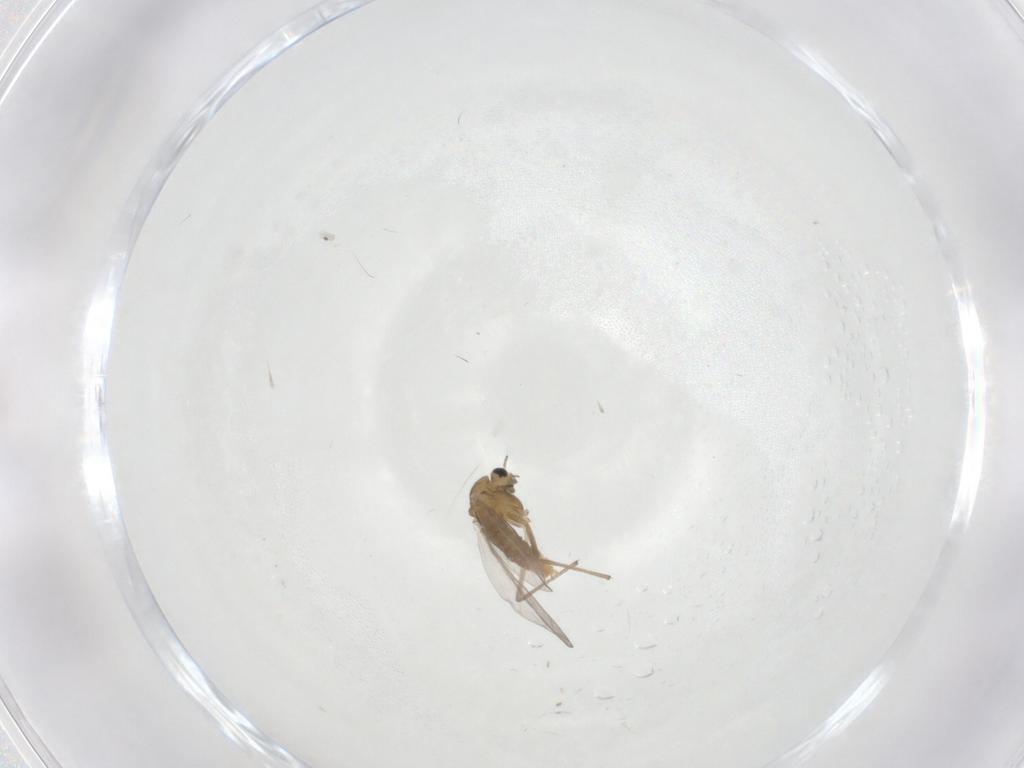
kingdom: Animalia
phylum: Arthropoda
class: Insecta
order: Diptera
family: Chironomidae
